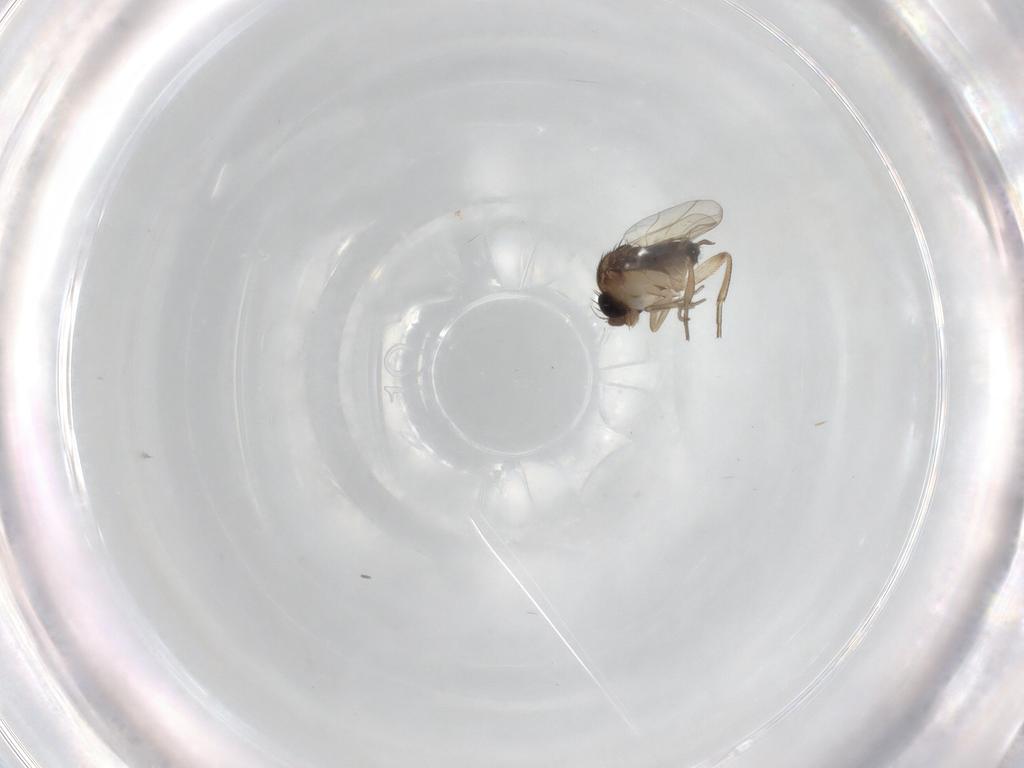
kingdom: Animalia
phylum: Arthropoda
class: Insecta
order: Diptera
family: Phoridae
